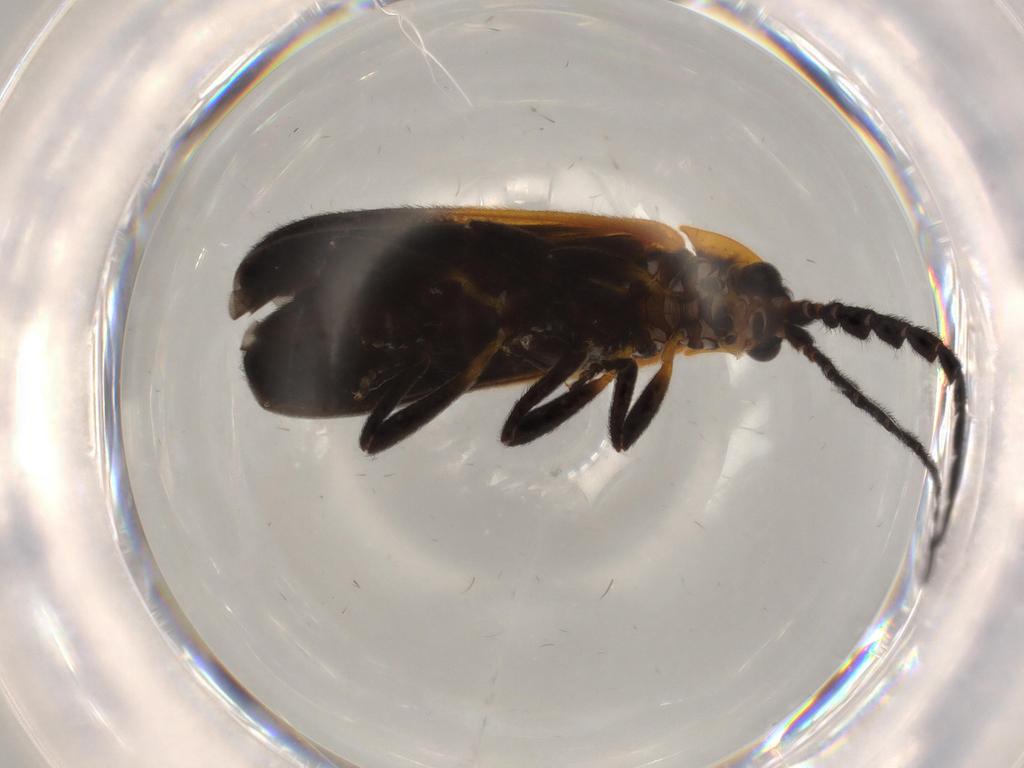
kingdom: Animalia
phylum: Arthropoda
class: Insecta
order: Coleoptera
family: Lycidae
